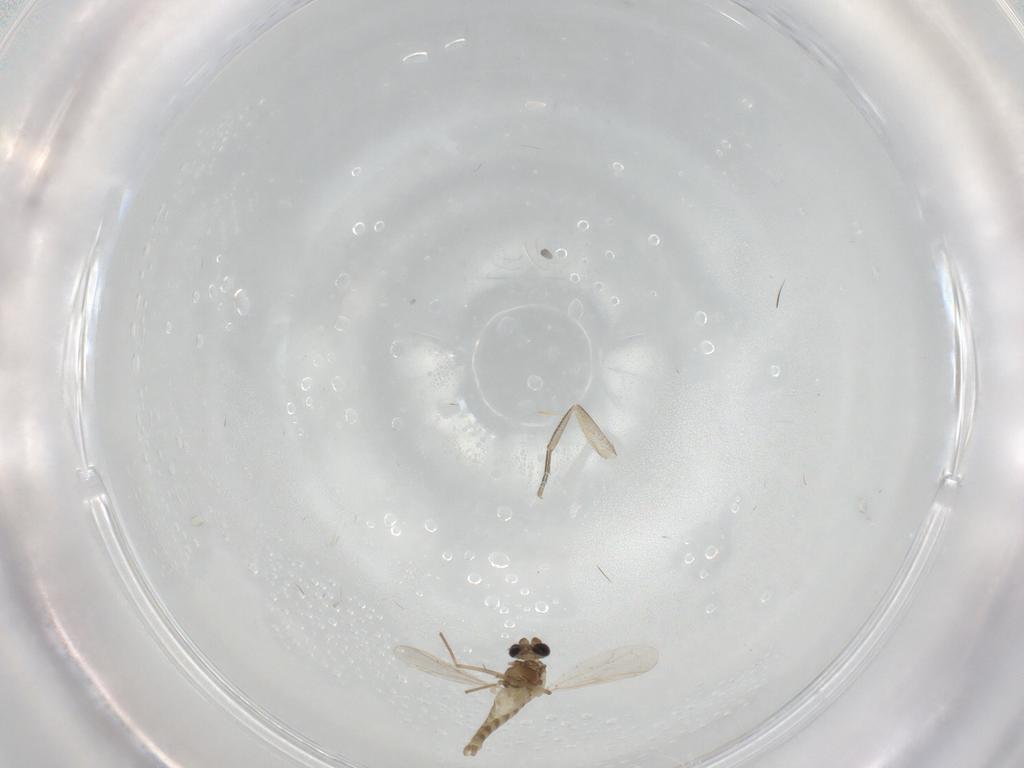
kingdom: Animalia
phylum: Arthropoda
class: Insecta
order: Diptera
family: Chironomidae
